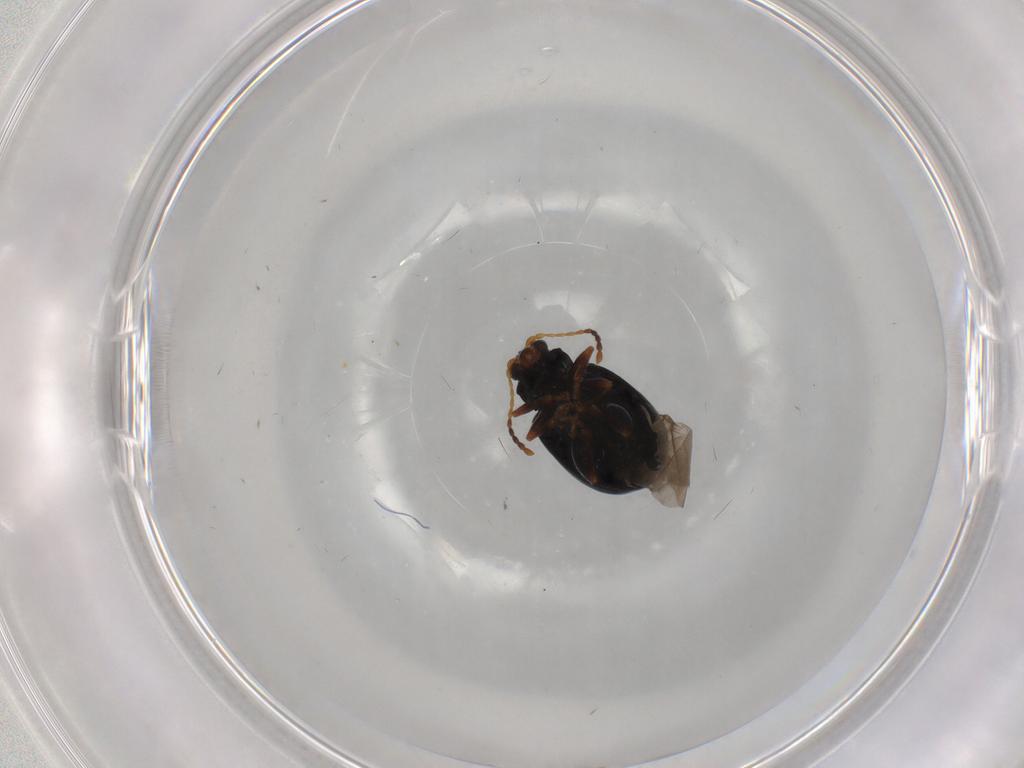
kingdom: Animalia
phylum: Arthropoda
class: Insecta
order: Coleoptera
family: Chrysomelidae
